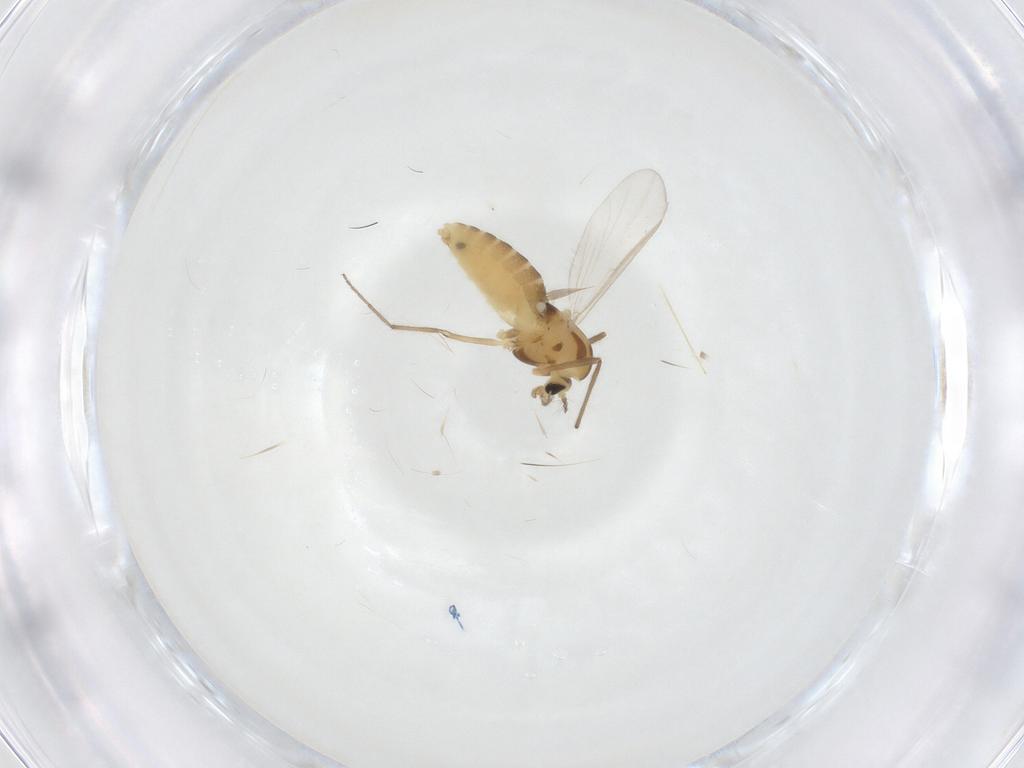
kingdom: Animalia
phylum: Arthropoda
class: Insecta
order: Diptera
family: Chironomidae
